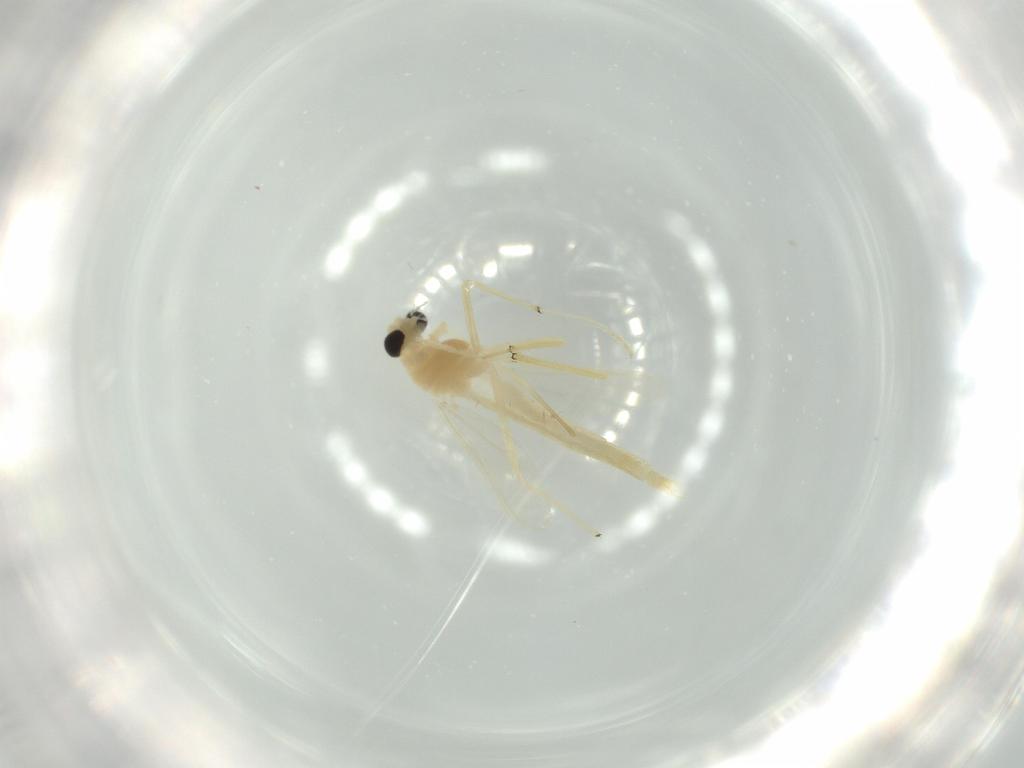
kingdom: Animalia
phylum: Arthropoda
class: Insecta
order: Diptera
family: Chironomidae
